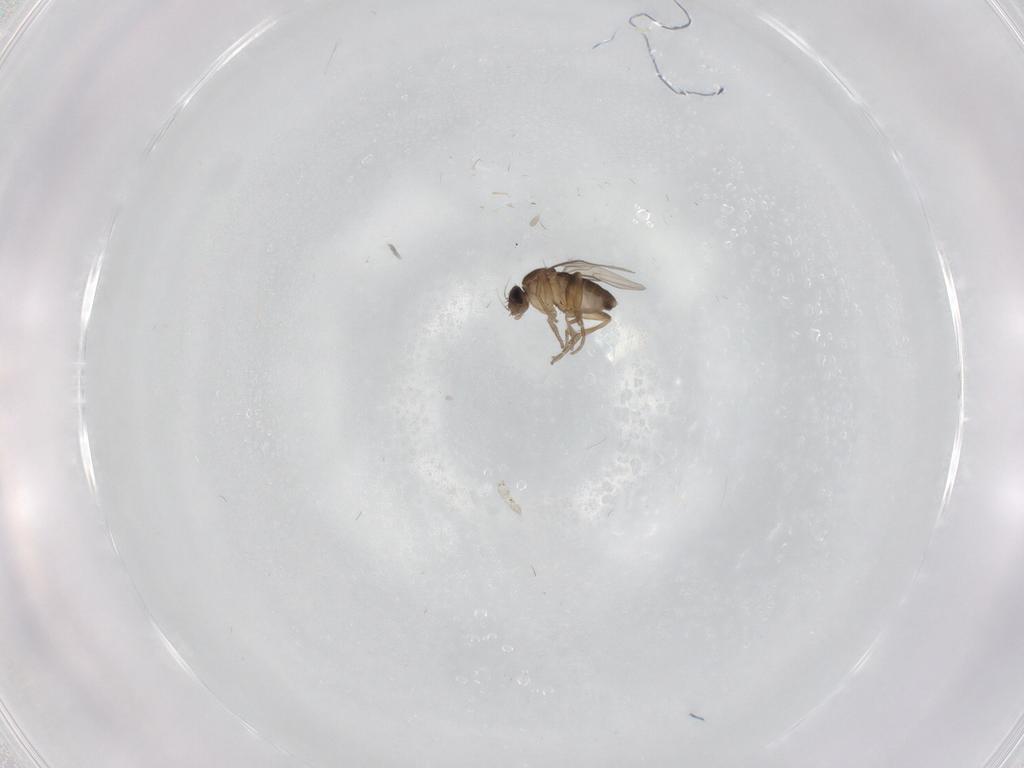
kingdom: Animalia
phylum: Arthropoda
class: Insecta
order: Diptera
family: Phoridae
